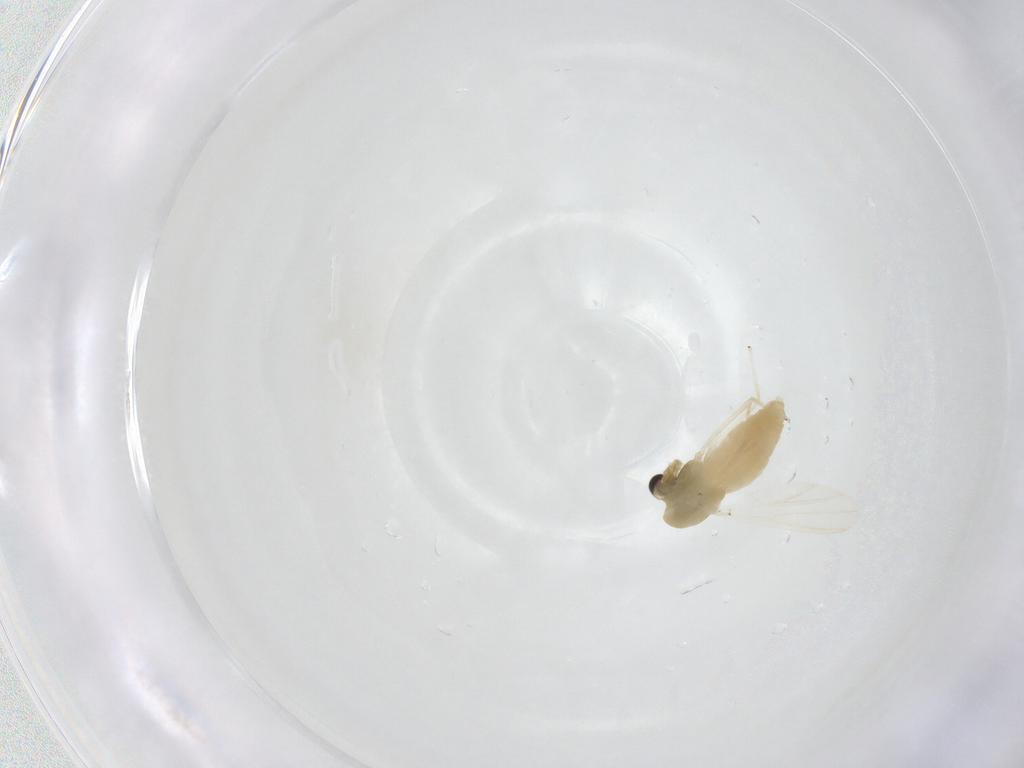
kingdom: Animalia
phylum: Arthropoda
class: Insecta
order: Diptera
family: Chironomidae
